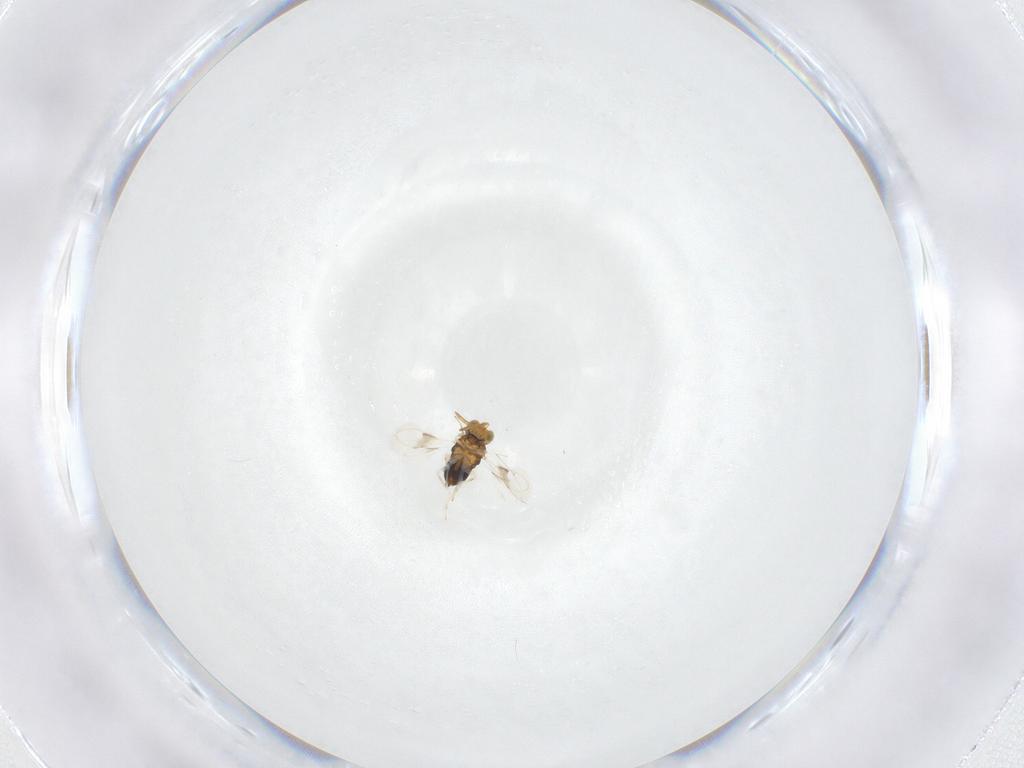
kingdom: Animalia
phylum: Arthropoda
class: Insecta
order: Hymenoptera
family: Aphelinidae
